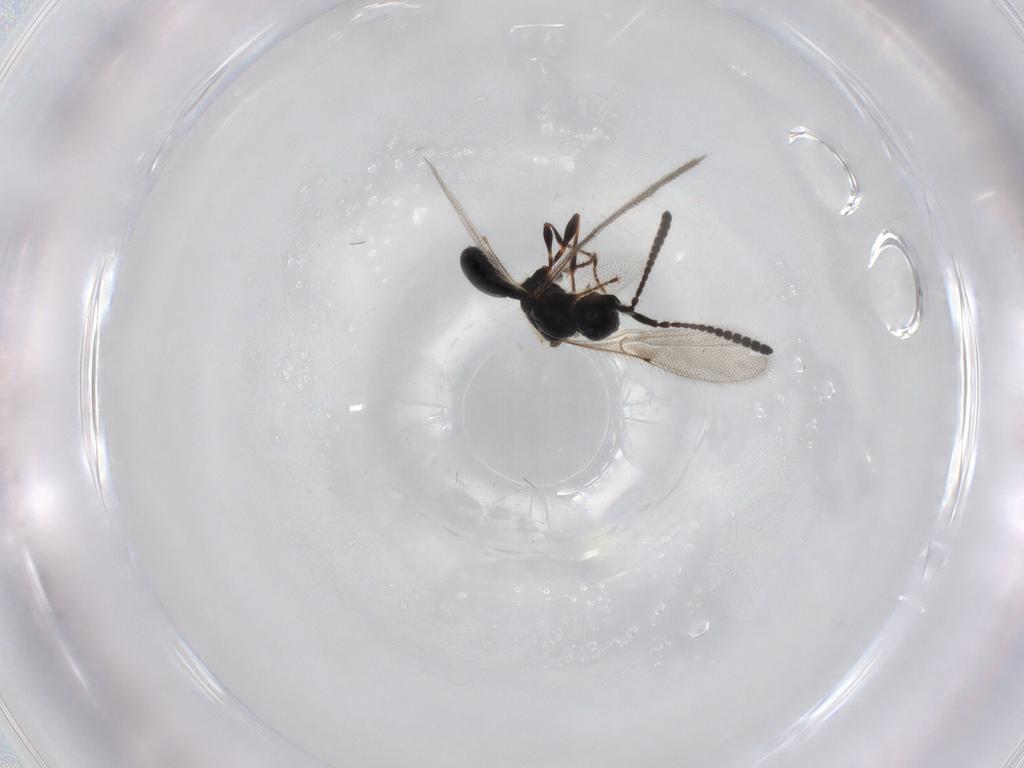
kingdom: Animalia
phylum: Arthropoda
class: Insecta
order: Hymenoptera
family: Diapriidae
